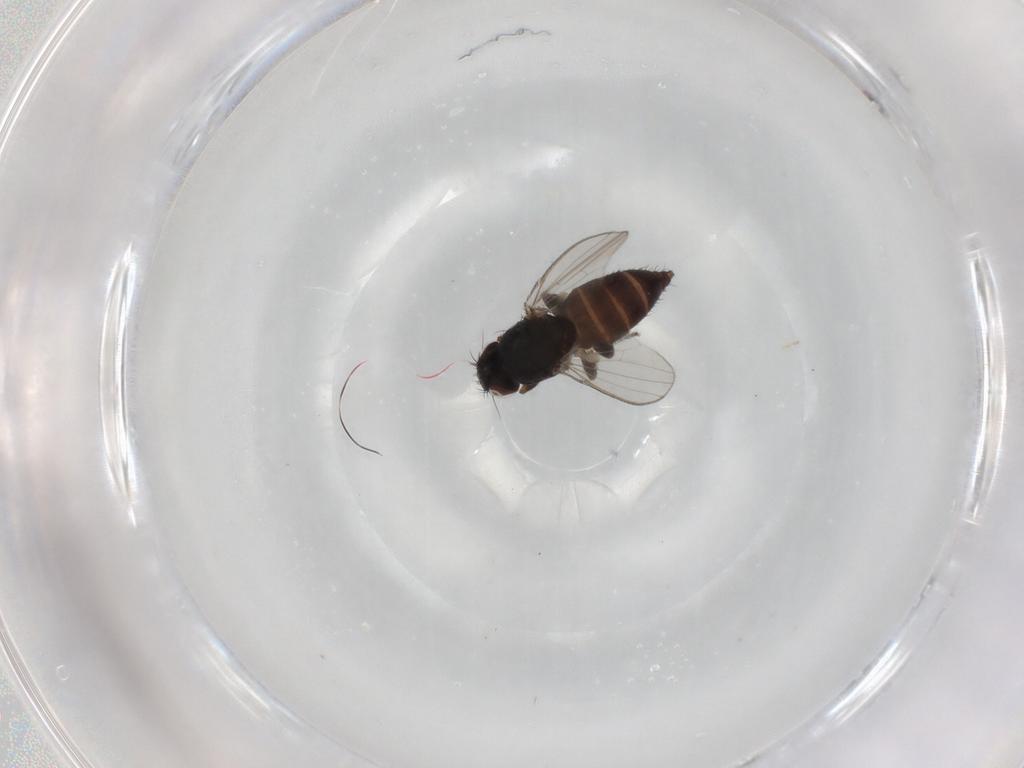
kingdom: Animalia
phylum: Arthropoda
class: Insecta
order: Diptera
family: Milichiidae
